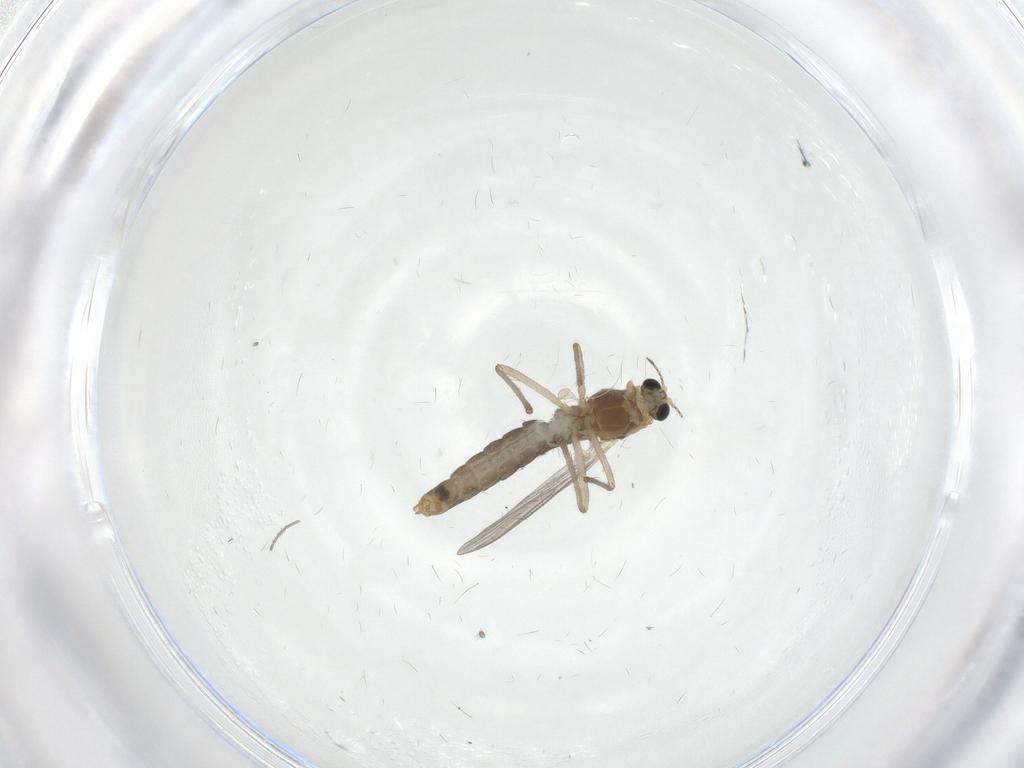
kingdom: Animalia
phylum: Arthropoda
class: Insecta
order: Diptera
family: Chironomidae
